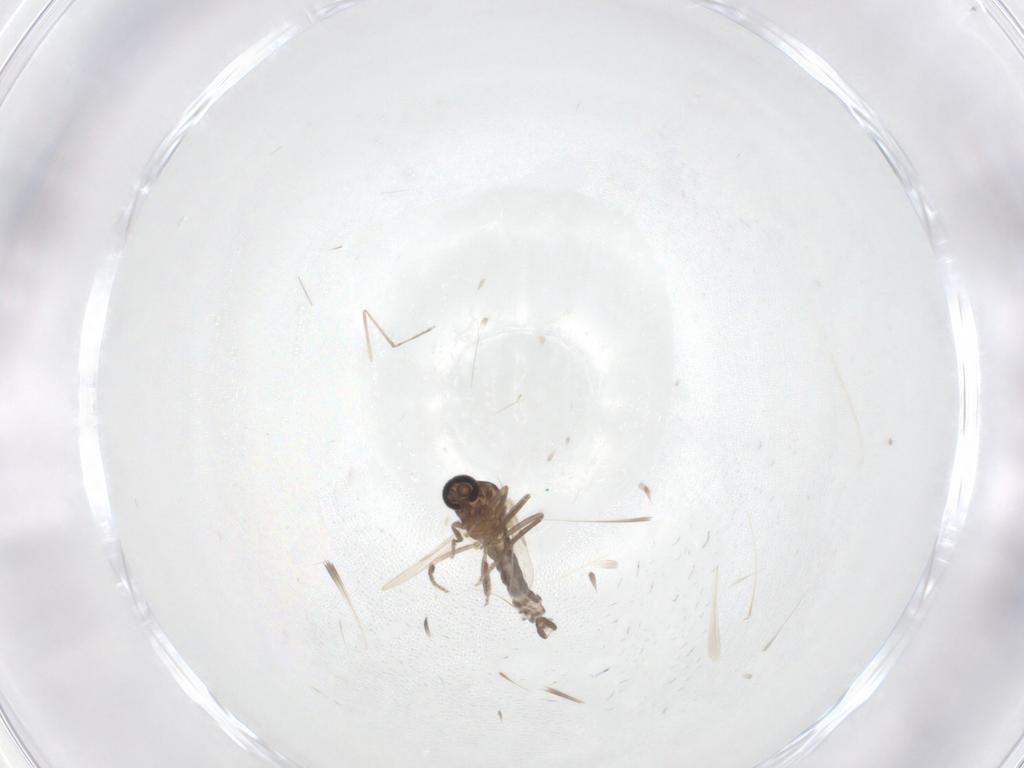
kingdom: Animalia
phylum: Arthropoda
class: Insecta
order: Diptera
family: Ceratopogonidae
